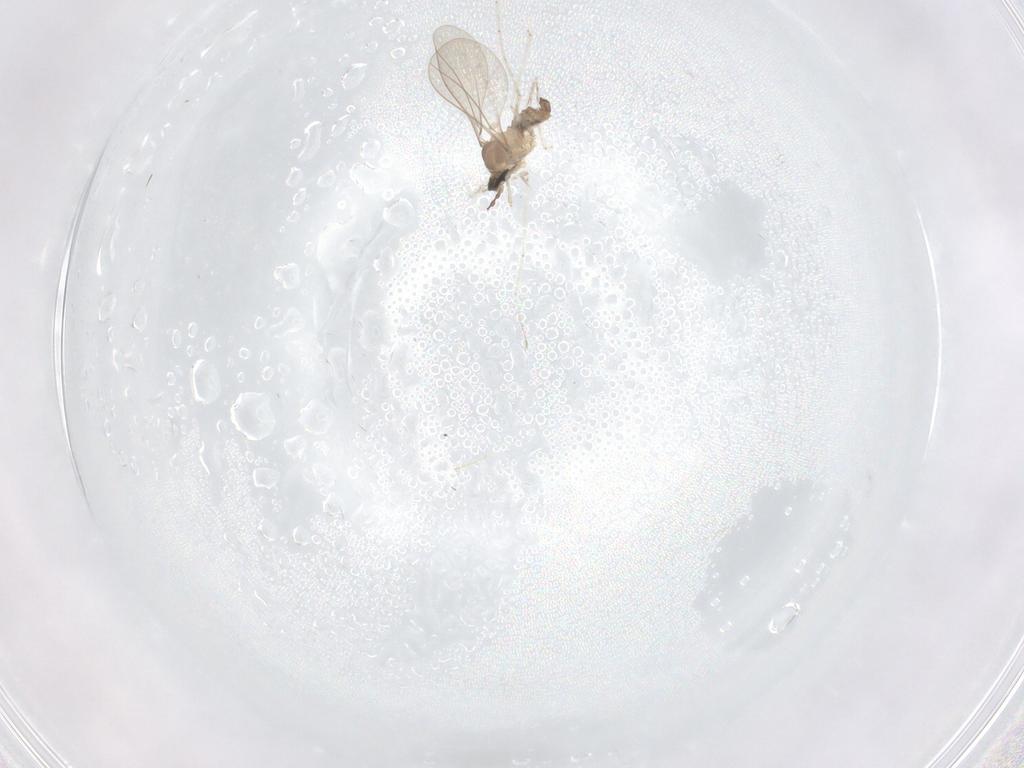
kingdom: Animalia
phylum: Arthropoda
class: Insecta
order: Diptera
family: Cecidomyiidae
